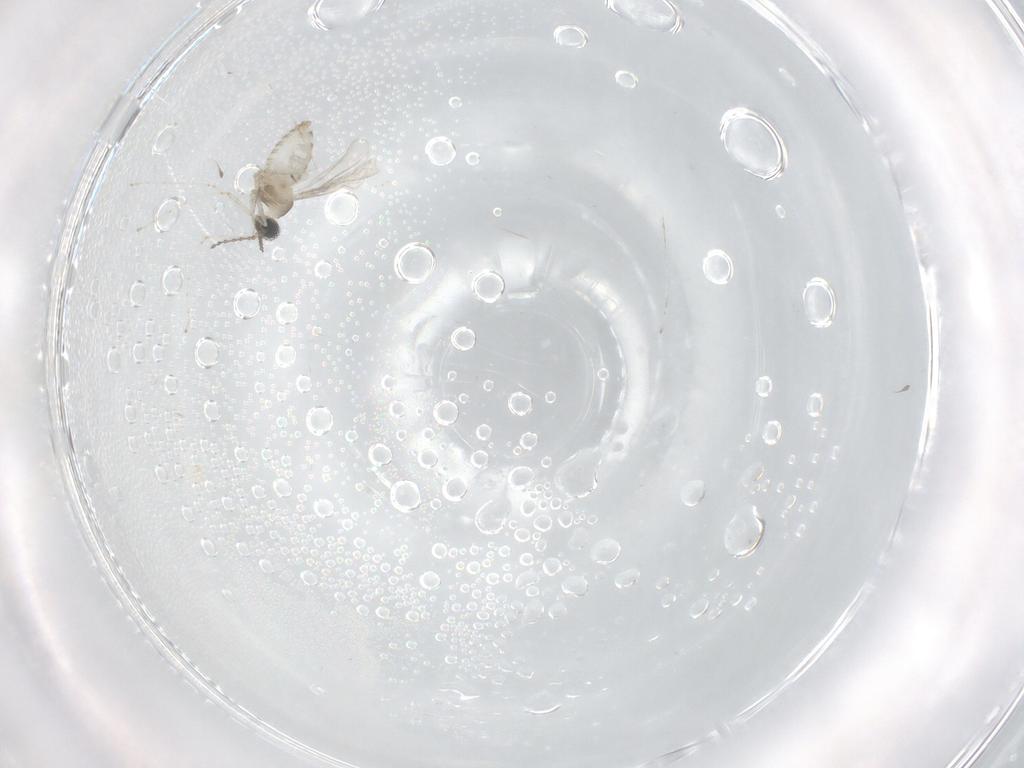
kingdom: Animalia
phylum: Arthropoda
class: Insecta
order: Diptera
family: Cecidomyiidae
